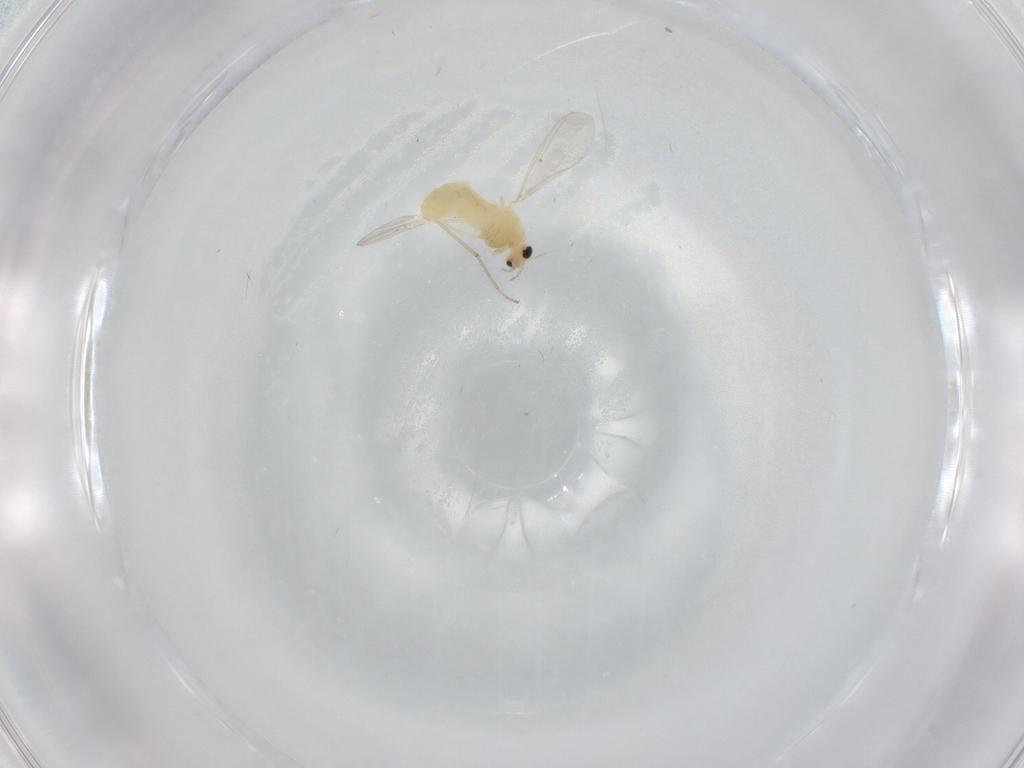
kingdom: Animalia
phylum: Arthropoda
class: Insecta
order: Diptera
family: Chironomidae
